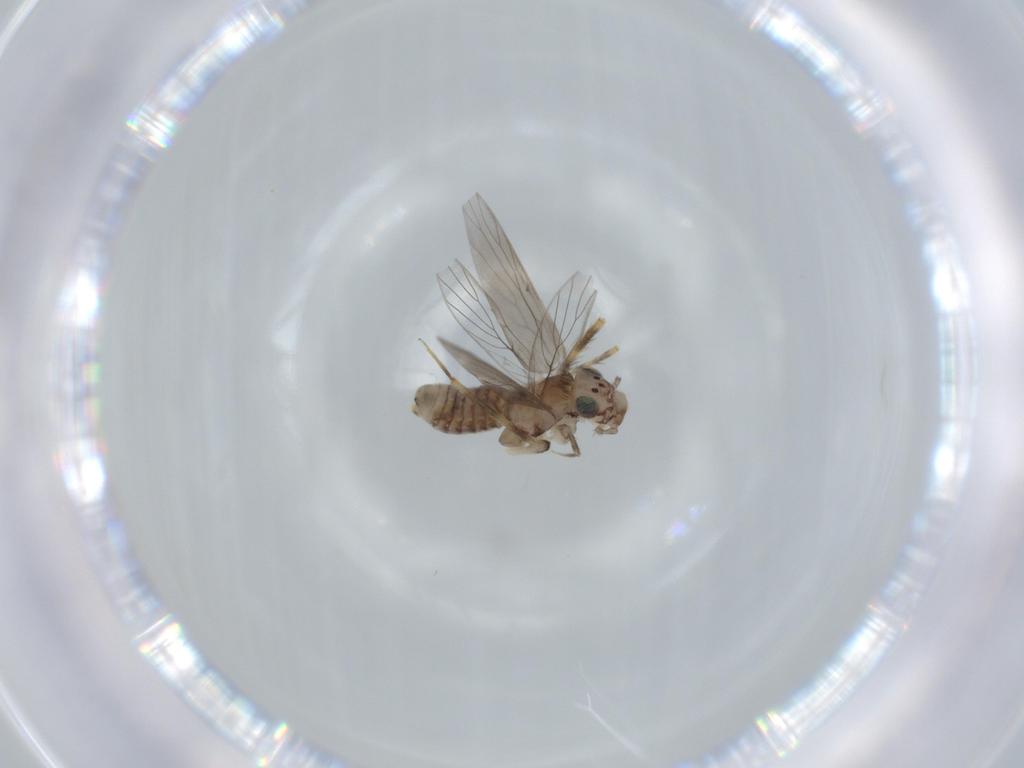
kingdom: Animalia
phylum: Arthropoda
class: Insecta
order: Psocodea
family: Lepidopsocidae
